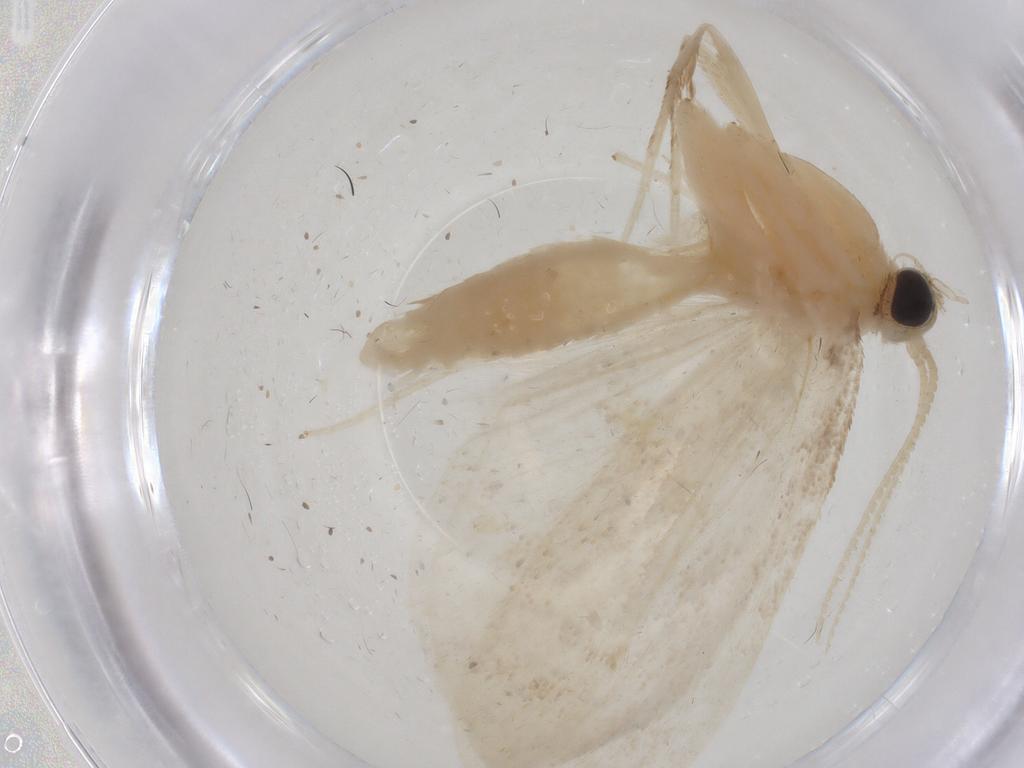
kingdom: Animalia
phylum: Arthropoda
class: Insecta
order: Lepidoptera
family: Crambidae
